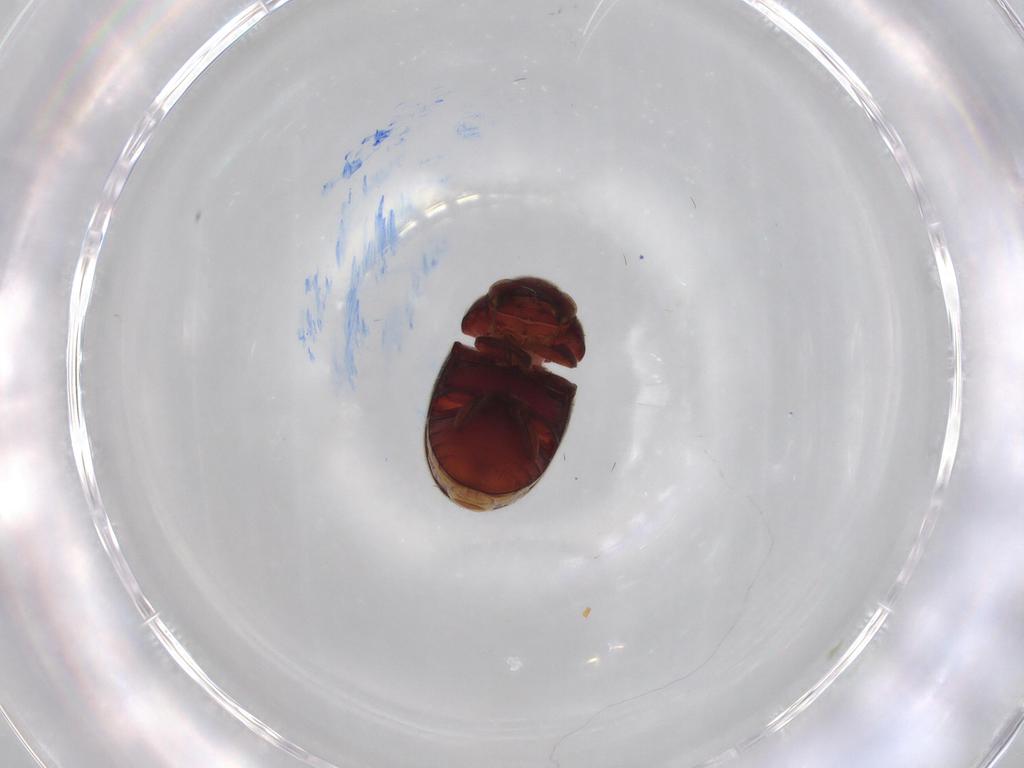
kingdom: Animalia
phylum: Arthropoda
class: Insecta
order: Coleoptera
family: Ptinidae
